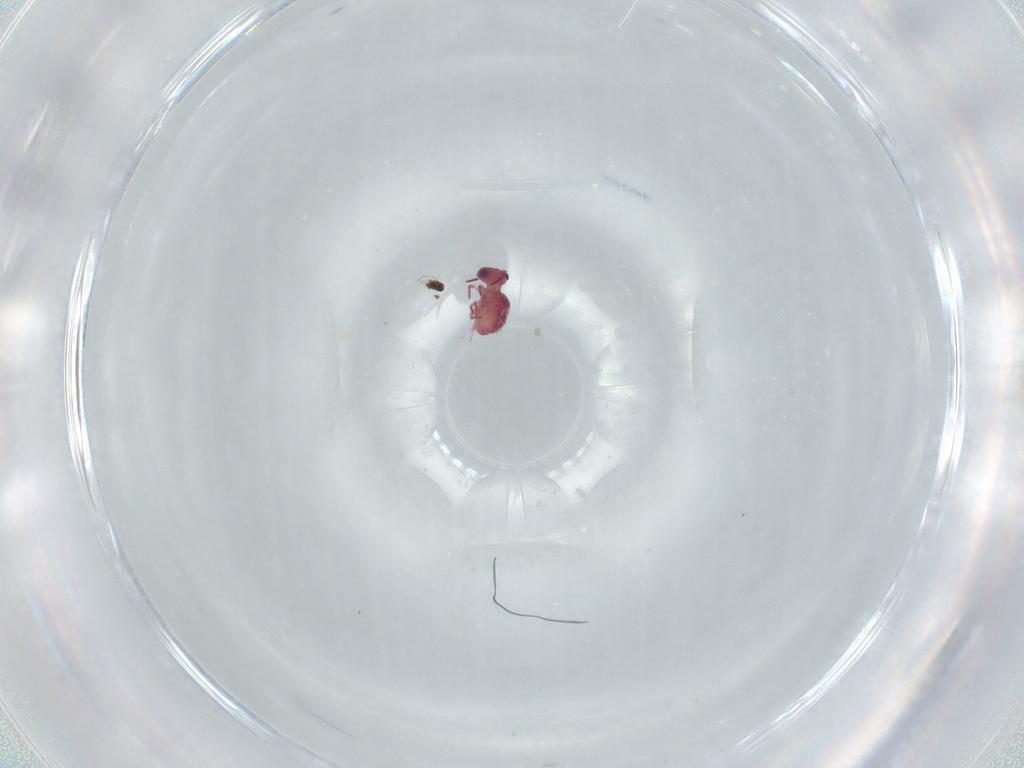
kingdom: Animalia
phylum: Arthropoda
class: Collembola
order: Symphypleona
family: Sminthurididae
